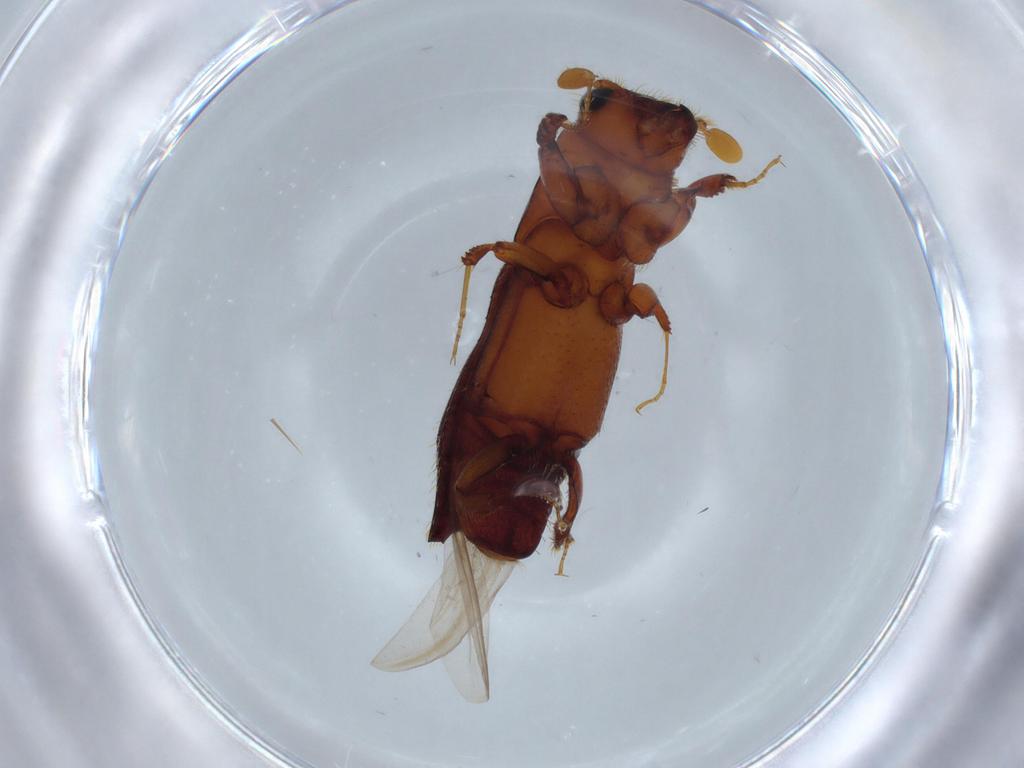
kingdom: Animalia
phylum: Arthropoda
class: Insecta
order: Coleoptera
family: Curculionidae
